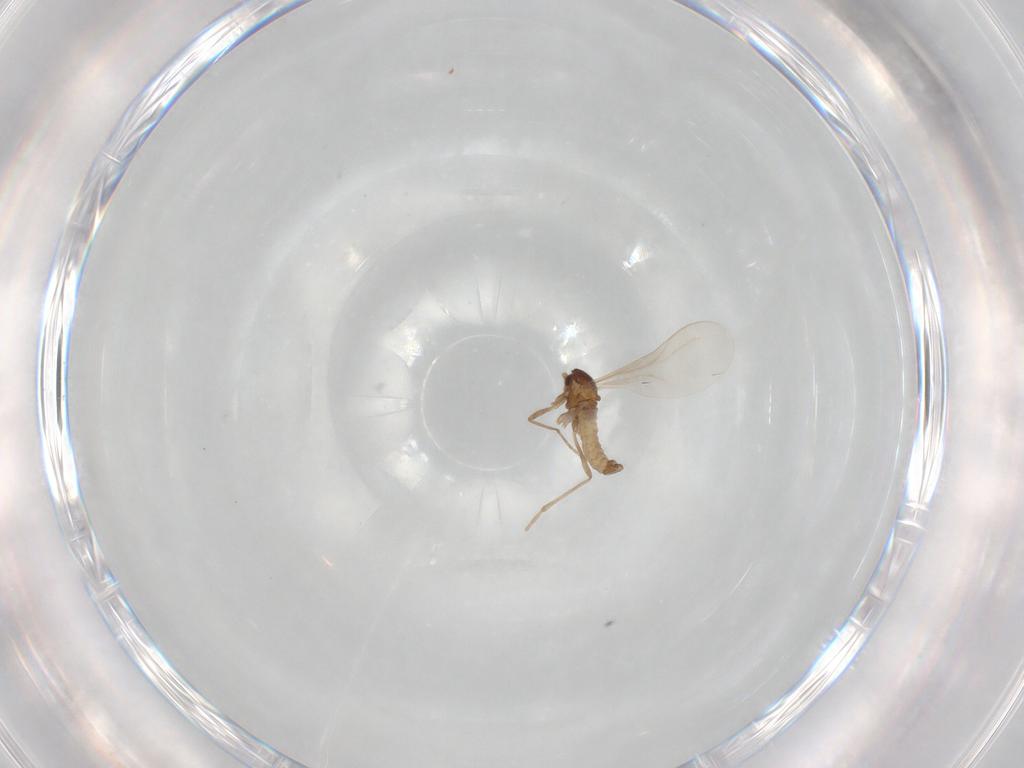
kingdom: Animalia
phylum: Arthropoda
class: Insecta
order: Diptera
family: Cecidomyiidae
